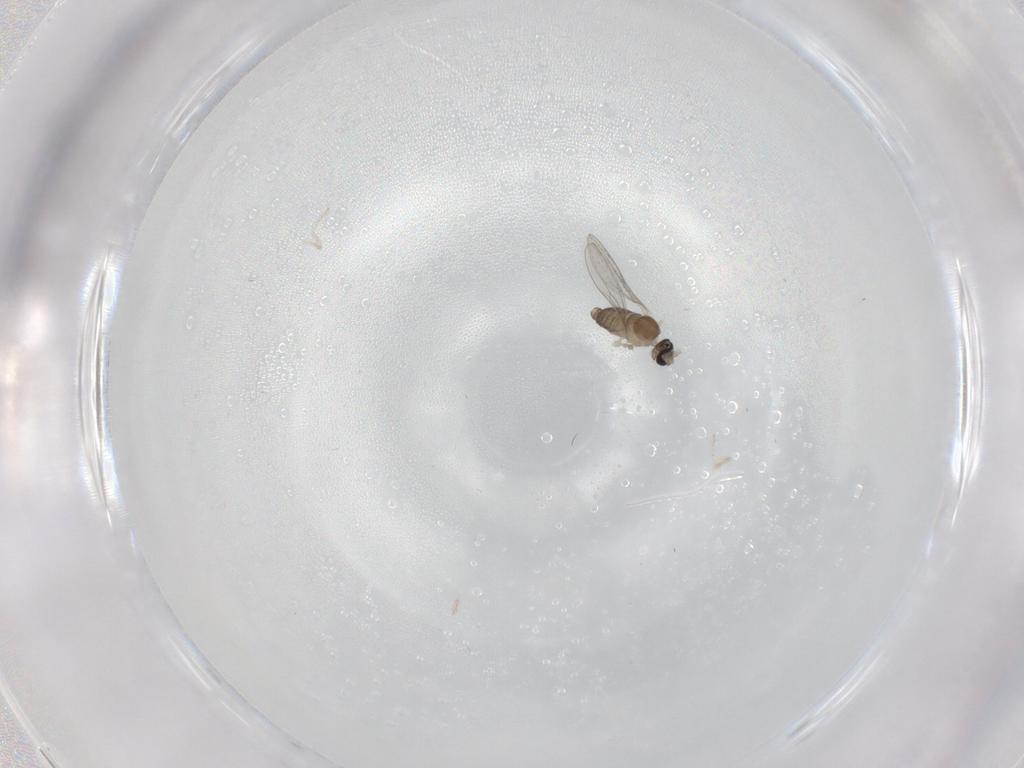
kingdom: Animalia
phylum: Arthropoda
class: Insecta
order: Diptera
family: Cecidomyiidae
